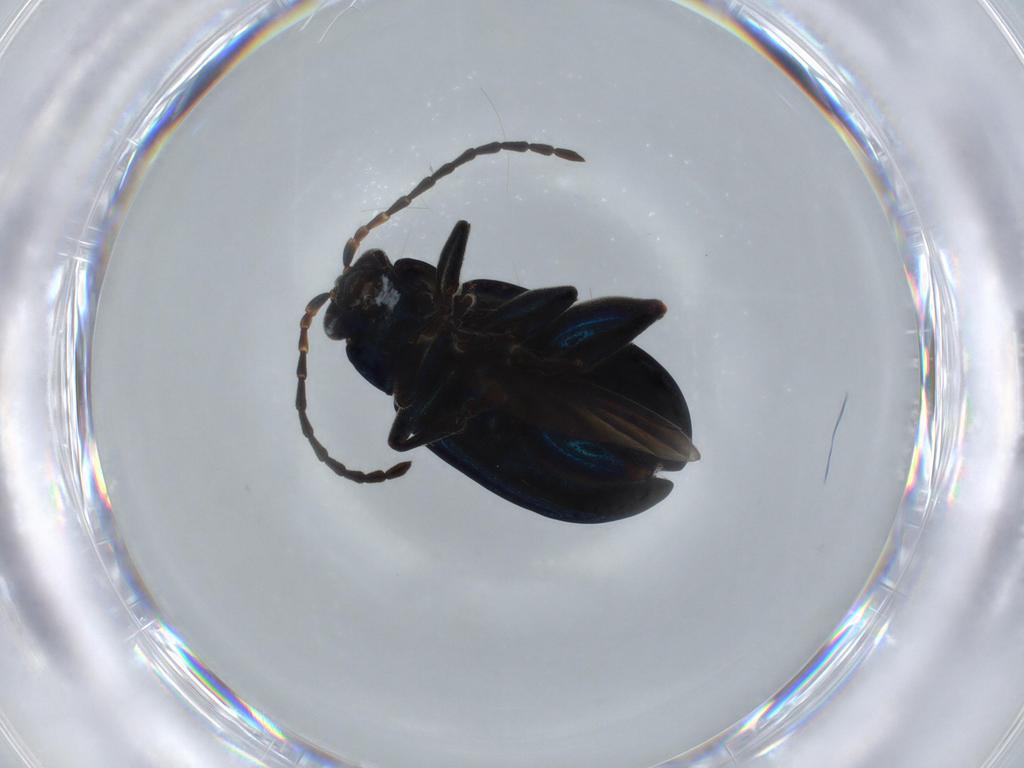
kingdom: Animalia
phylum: Arthropoda
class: Insecta
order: Coleoptera
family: Chrysomelidae
